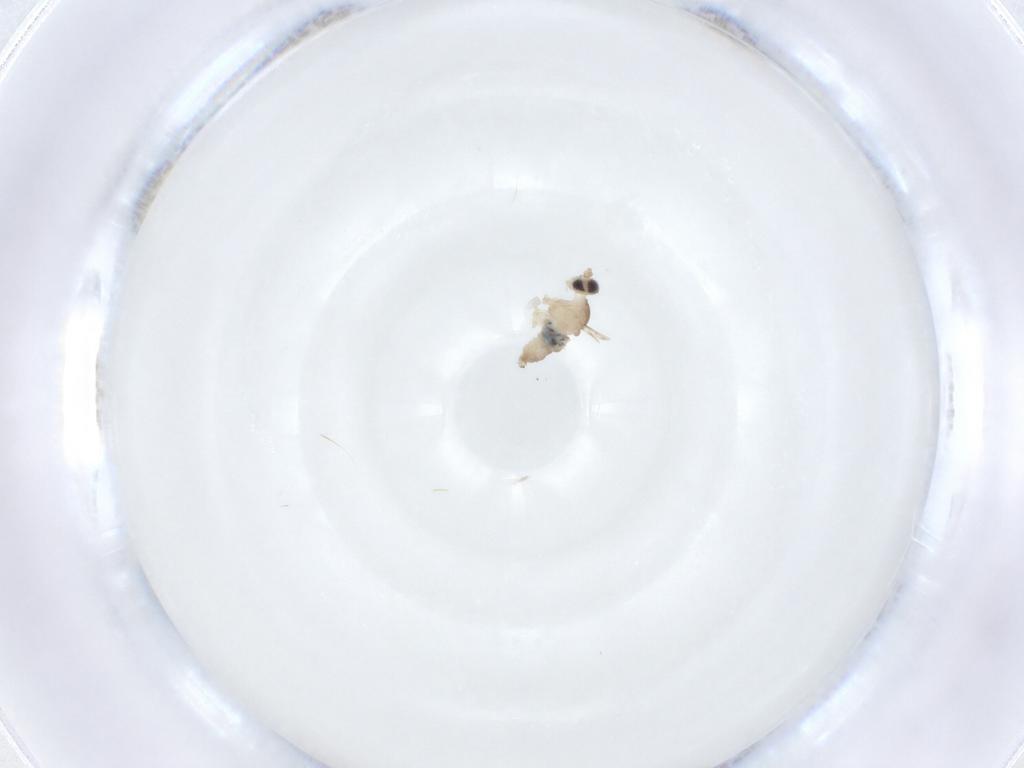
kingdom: Animalia
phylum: Arthropoda
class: Insecta
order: Diptera
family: Cecidomyiidae
